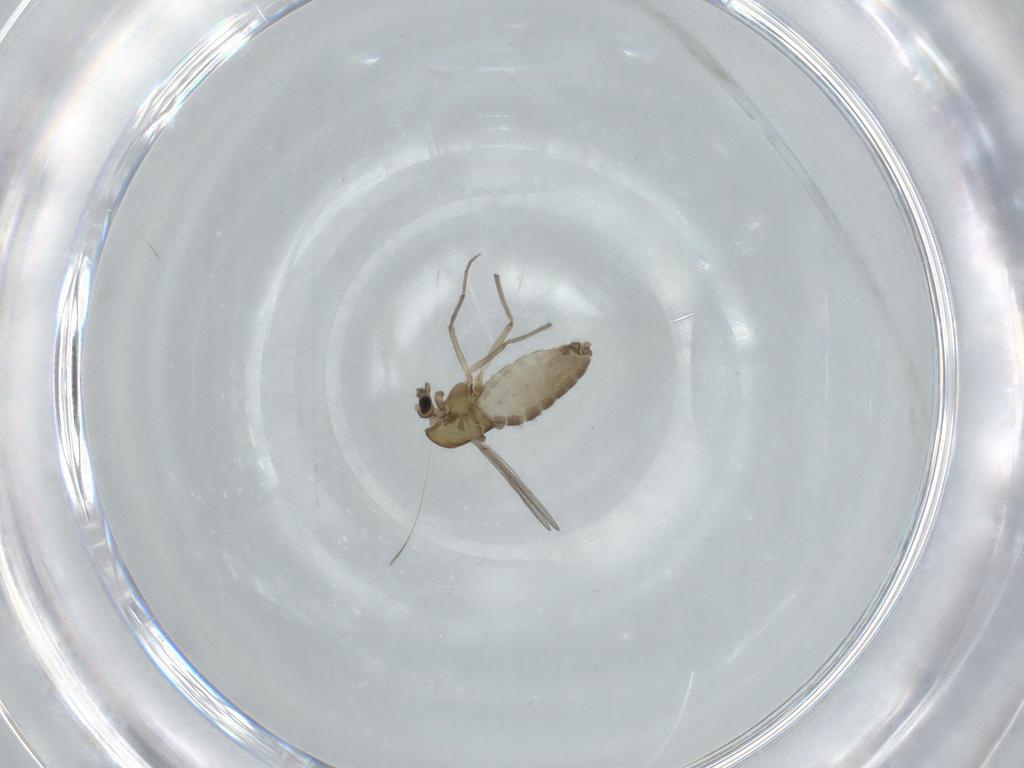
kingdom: Animalia
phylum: Arthropoda
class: Insecta
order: Diptera
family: Chironomidae
